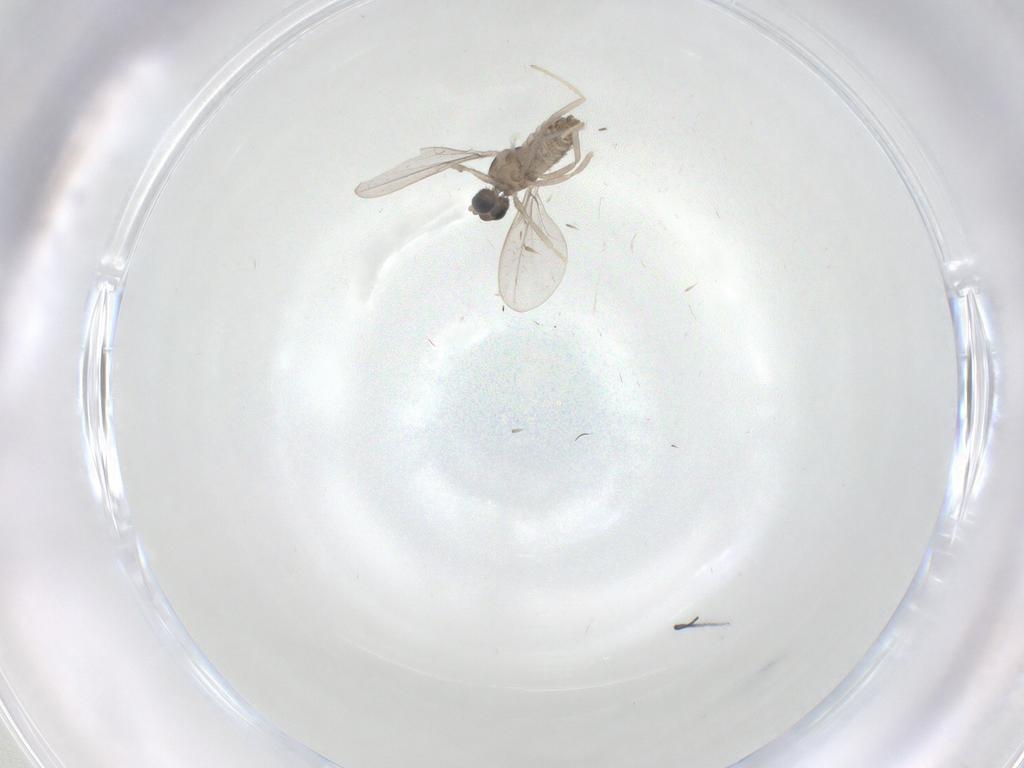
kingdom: Animalia
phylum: Arthropoda
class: Insecta
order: Diptera
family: Cecidomyiidae
